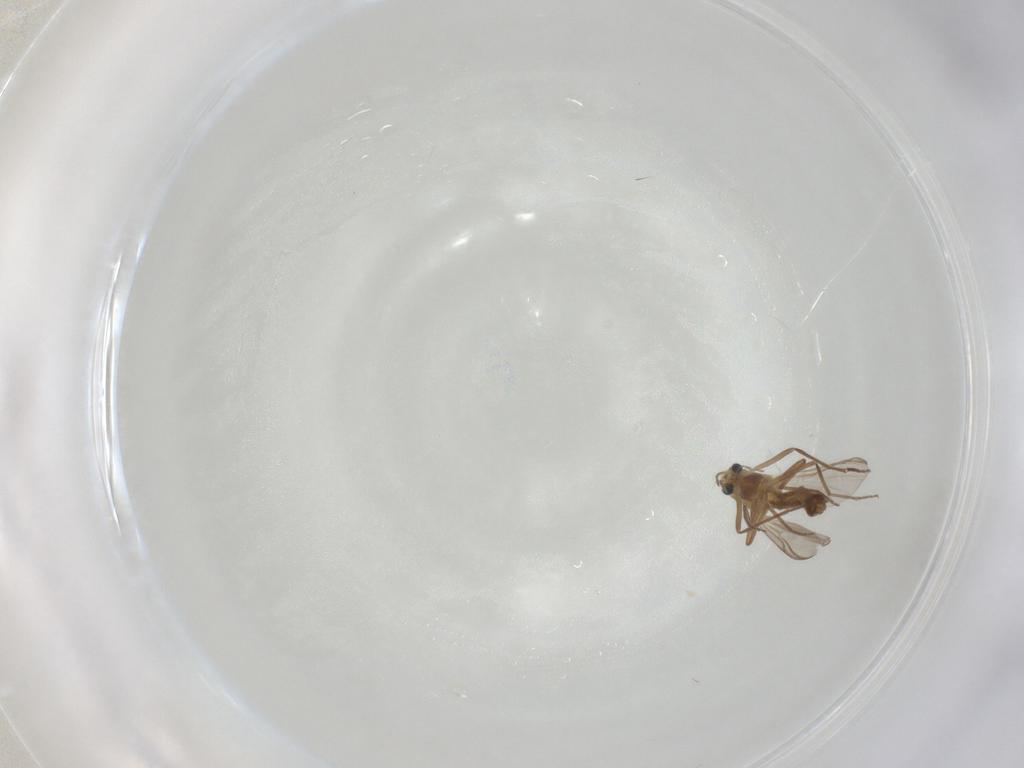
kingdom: Animalia
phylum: Arthropoda
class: Insecta
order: Diptera
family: Chironomidae
